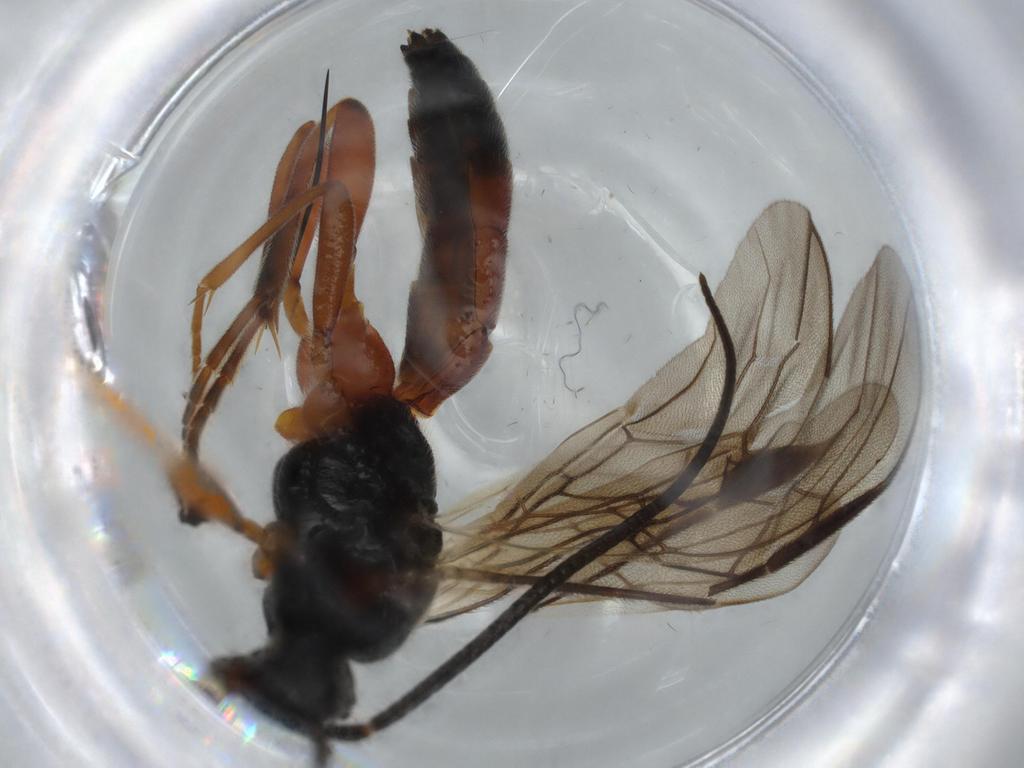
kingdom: Animalia
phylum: Arthropoda
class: Insecta
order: Hymenoptera
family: Braconidae
